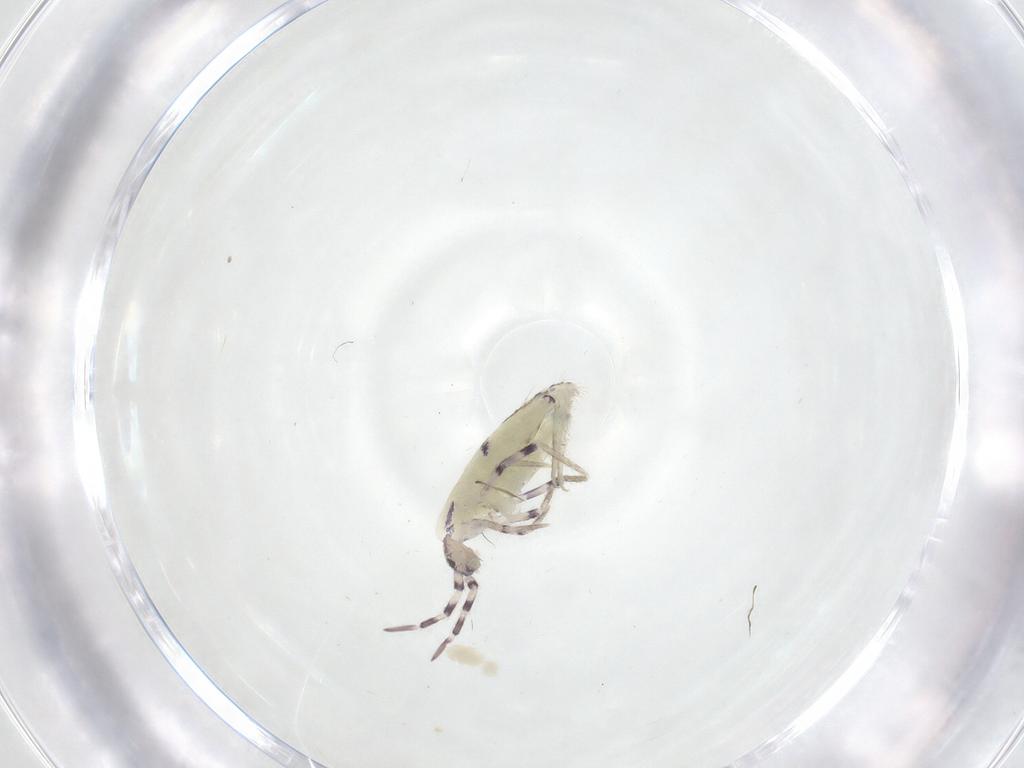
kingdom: Animalia
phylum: Arthropoda
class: Collembola
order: Entomobryomorpha
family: Entomobryidae
